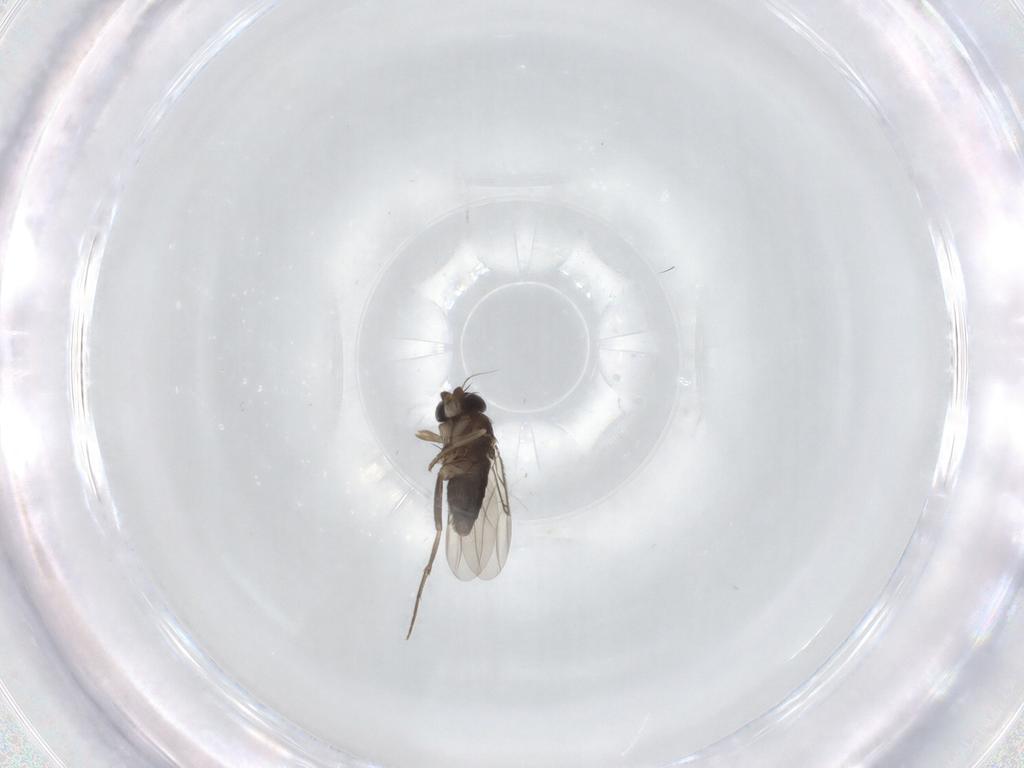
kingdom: Animalia
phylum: Arthropoda
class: Insecta
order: Diptera
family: Phoridae
